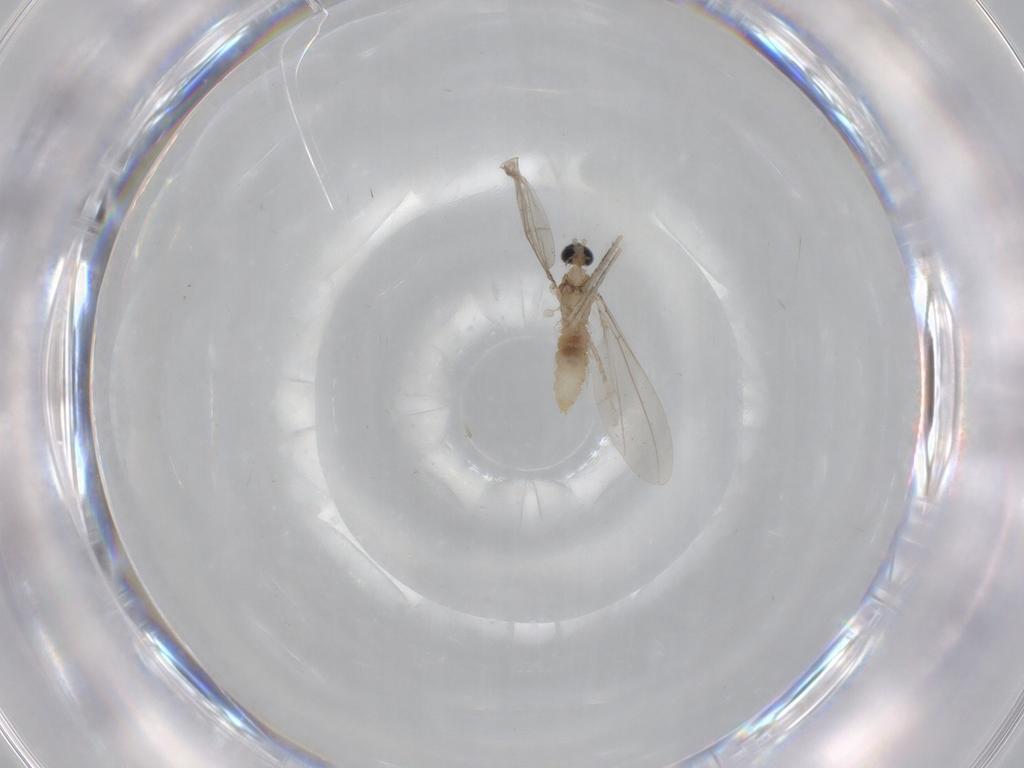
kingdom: Animalia
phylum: Arthropoda
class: Insecta
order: Diptera
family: Cecidomyiidae
